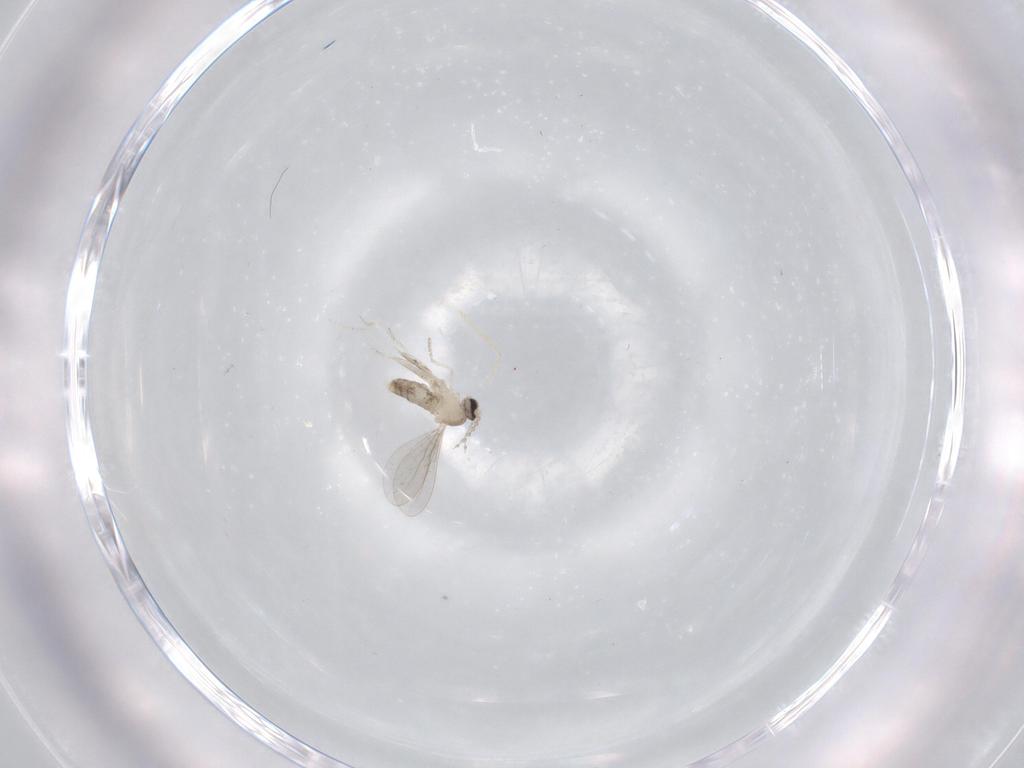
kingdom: Animalia
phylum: Arthropoda
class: Insecta
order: Diptera
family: Cecidomyiidae
